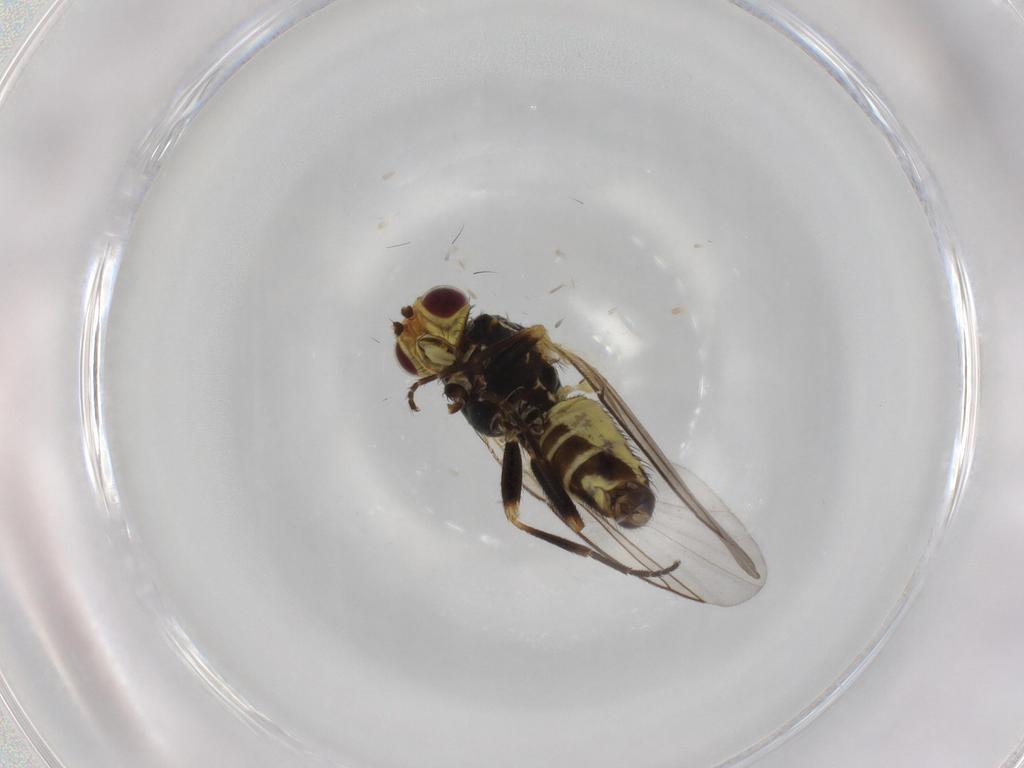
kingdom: Animalia
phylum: Arthropoda
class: Insecta
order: Diptera
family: Agromyzidae
